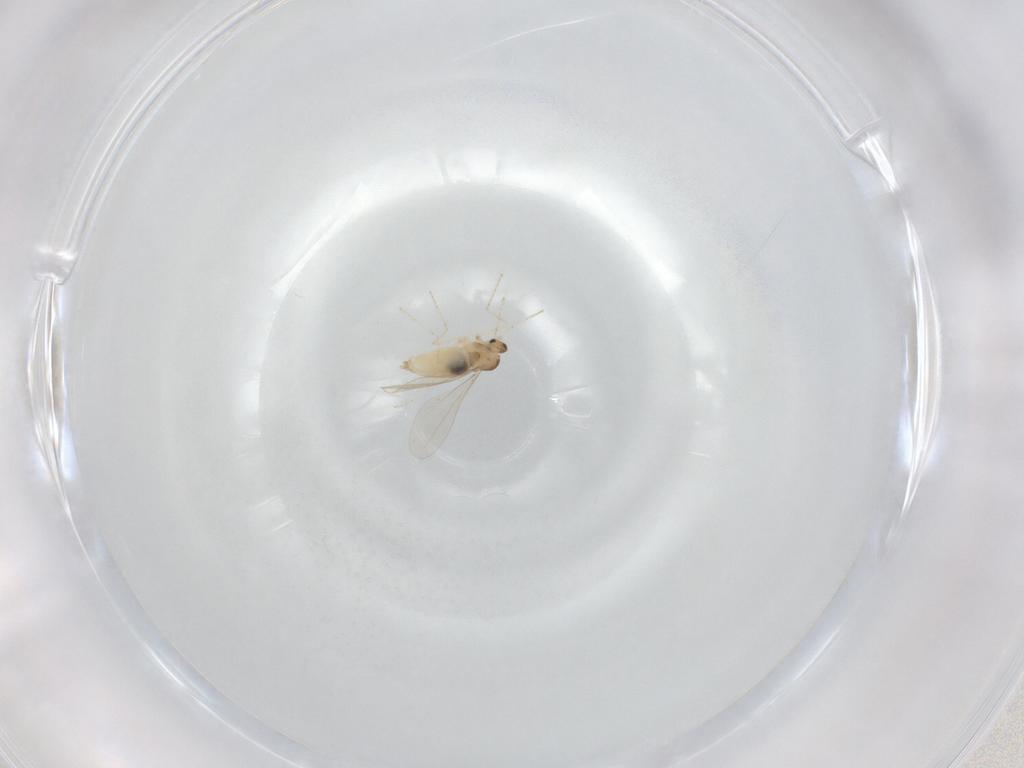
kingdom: Animalia
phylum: Arthropoda
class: Insecta
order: Diptera
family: Cecidomyiidae
